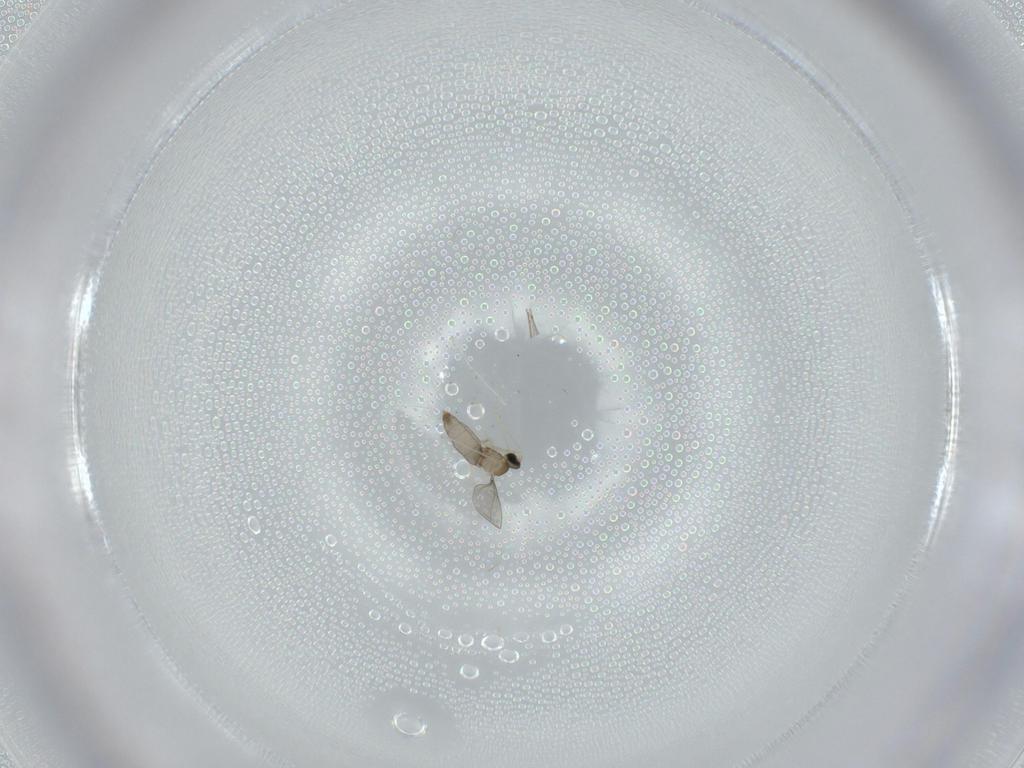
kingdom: Animalia
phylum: Arthropoda
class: Insecta
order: Diptera
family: Cecidomyiidae
